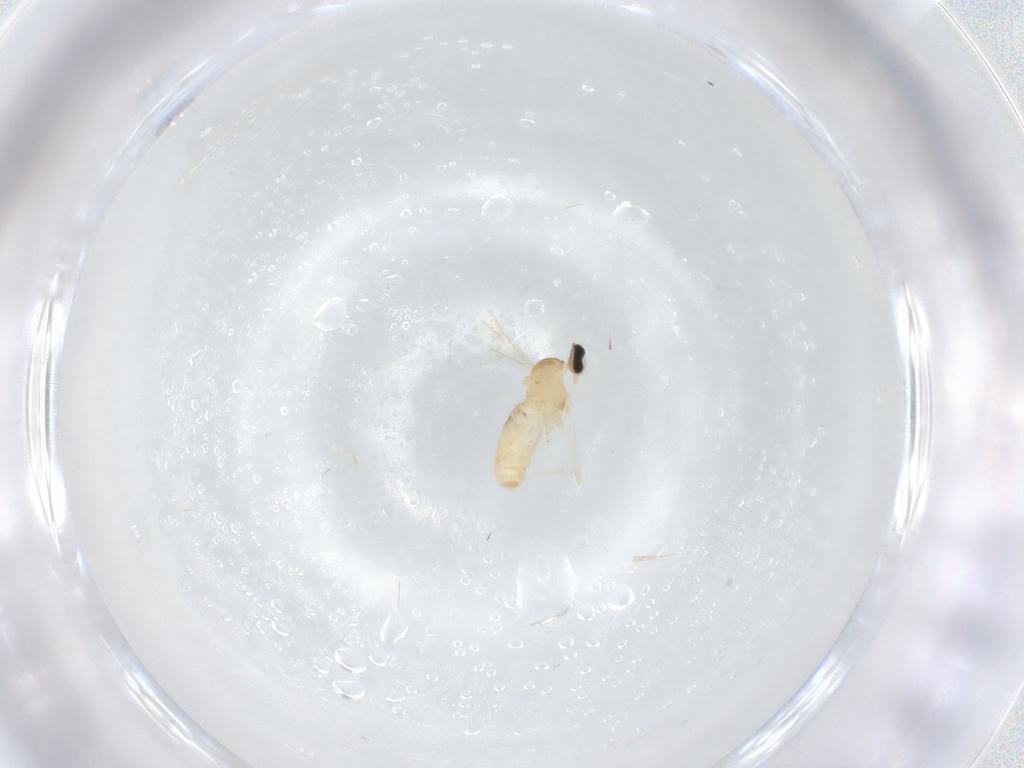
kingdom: Animalia
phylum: Arthropoda
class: Insecta
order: Diptera
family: Cecidomyiidae
